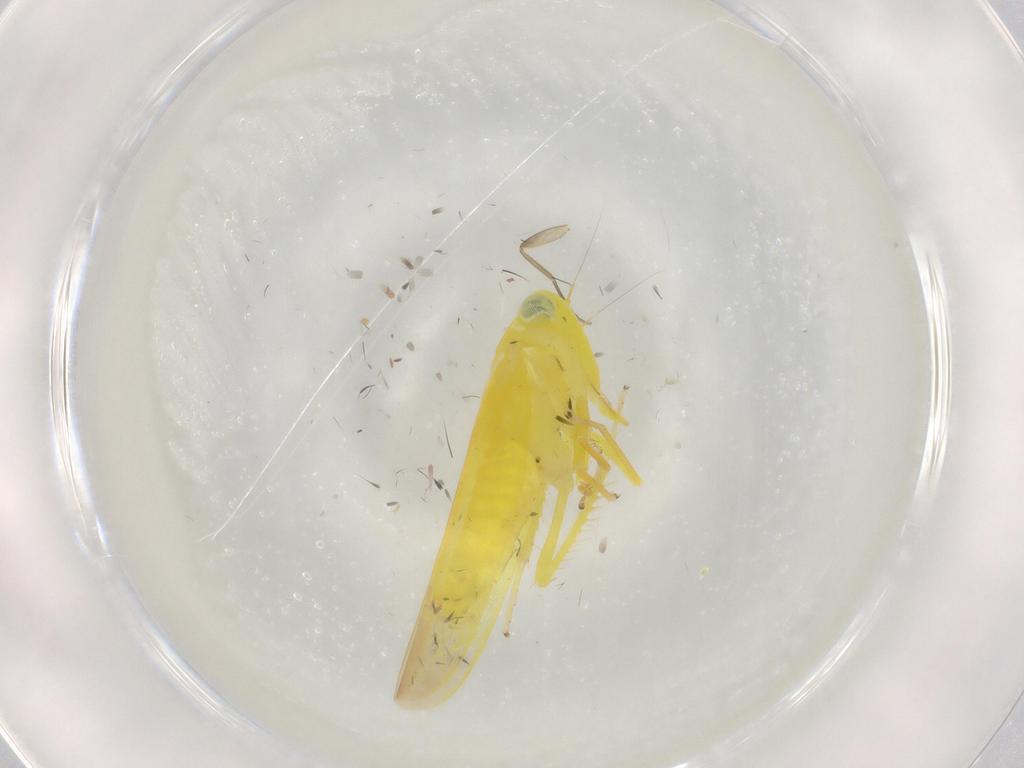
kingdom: Animalia
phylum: Arthropoda
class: Insecta
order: Hemiptera
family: Cicadellidae
